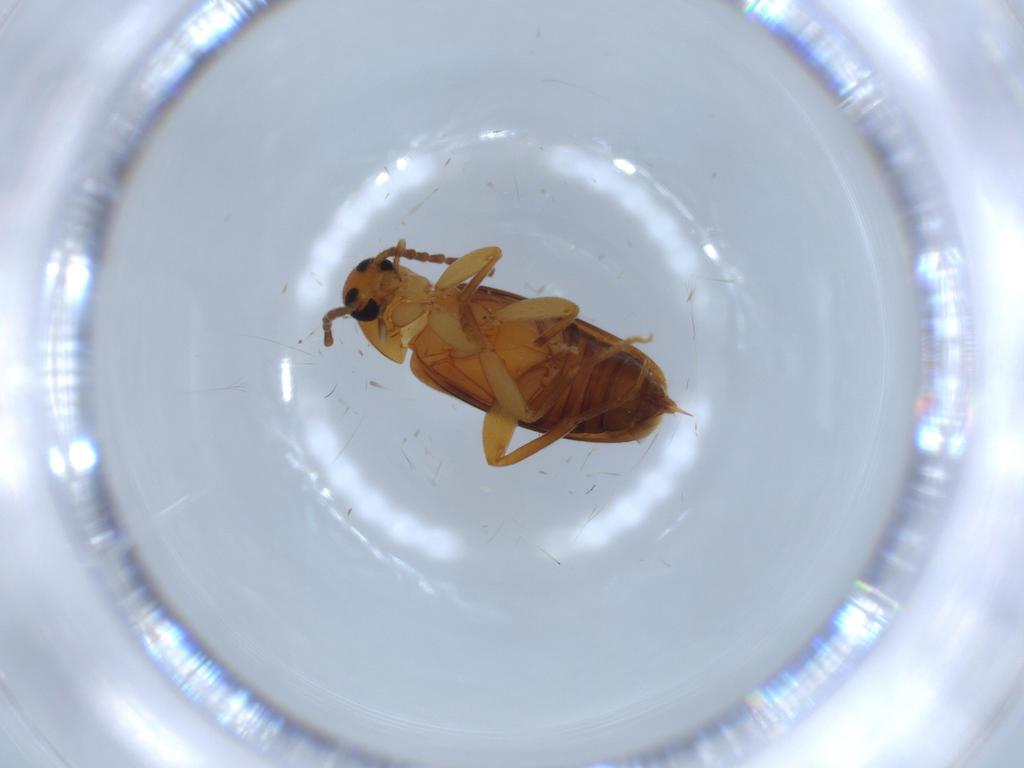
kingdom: Animalia
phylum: Arthropoda
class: Insecta
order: Coleoptera
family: Scraptiidae
